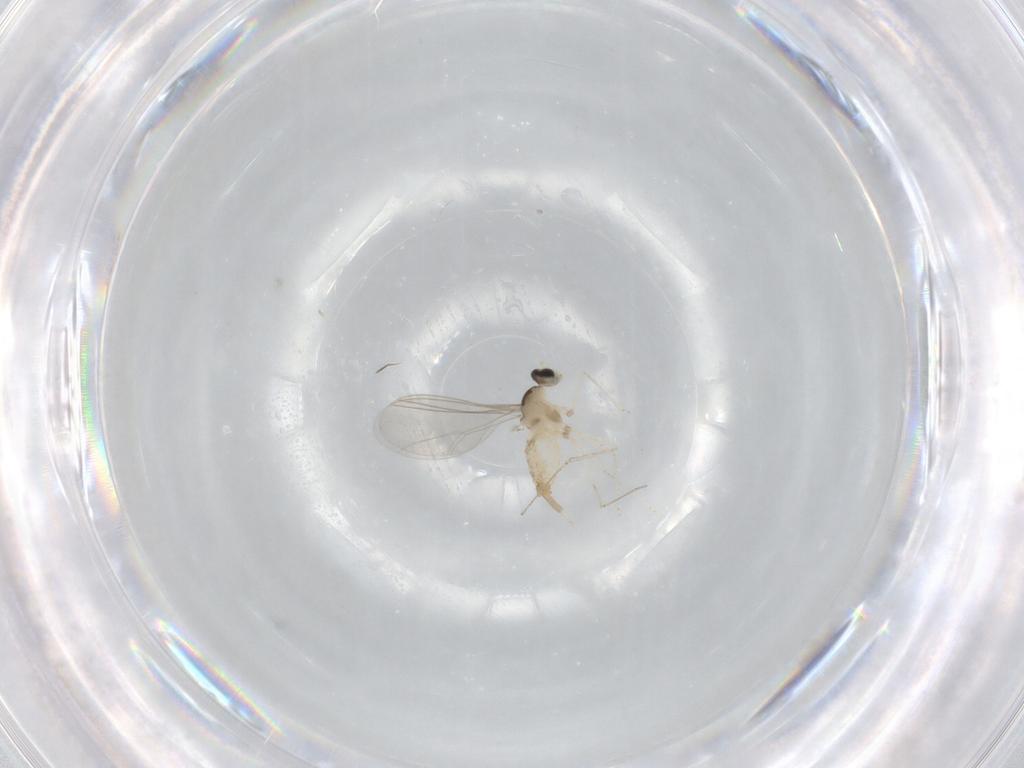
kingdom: Animalia
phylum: Arthropoda
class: Insecta
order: Diptera
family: Cecidomyiidae
